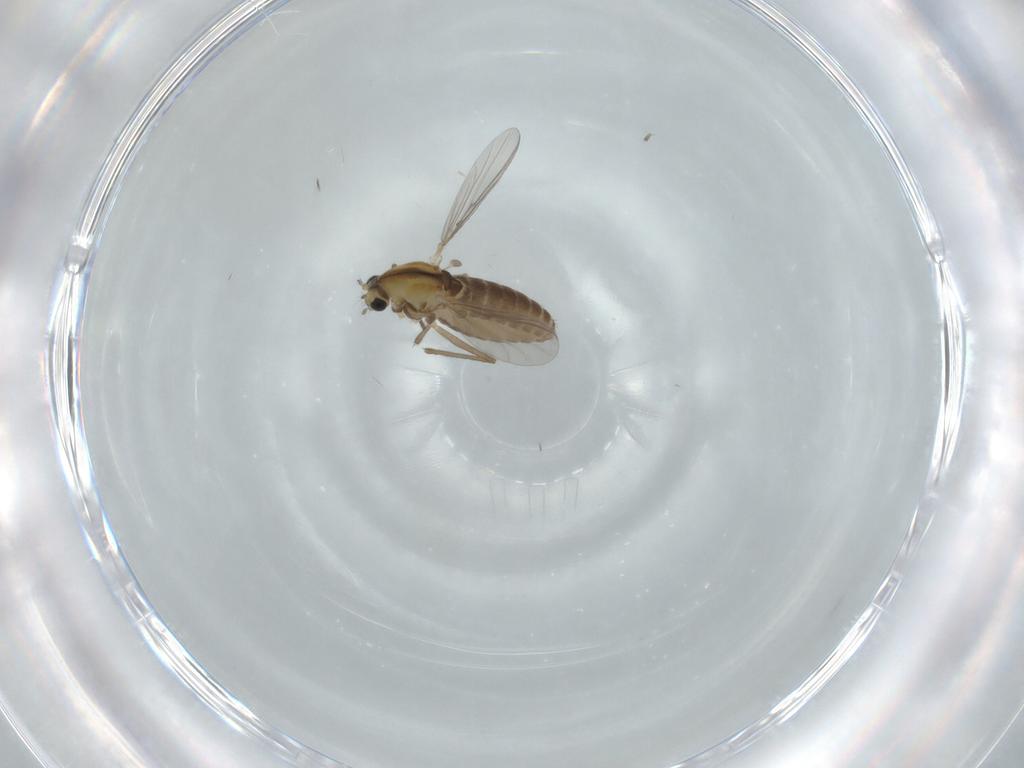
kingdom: Animalia
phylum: Arthropoda
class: Insecta
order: Diptera
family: Chironomidae
